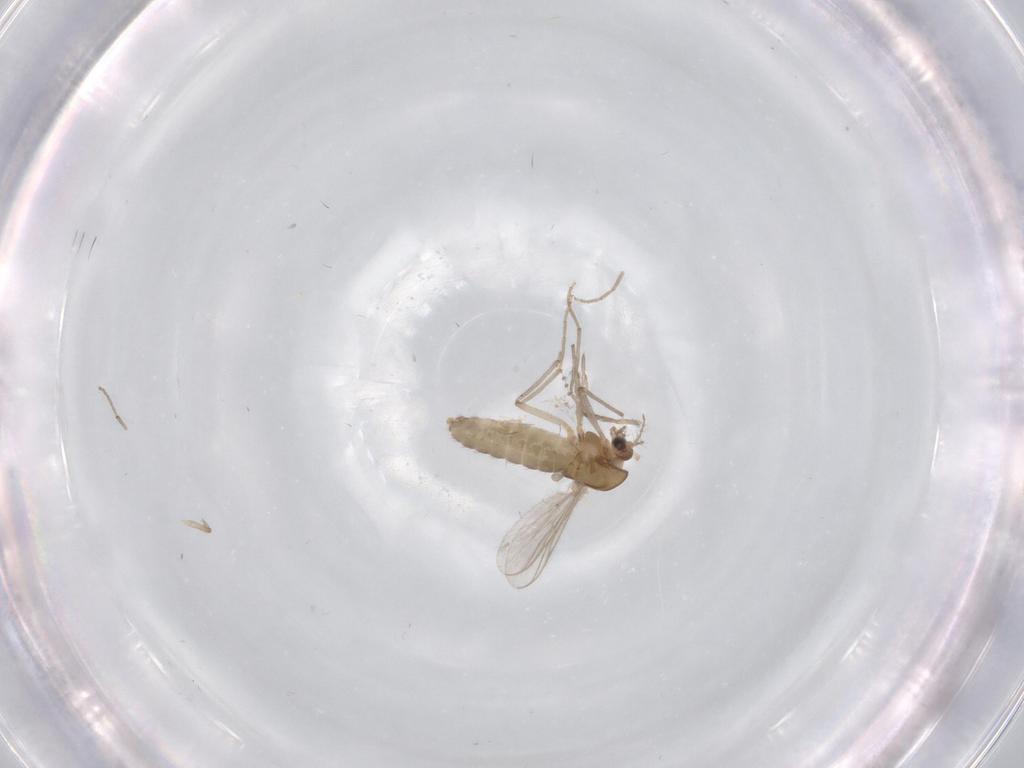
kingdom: Animalia
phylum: Arthropoda
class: Insecta
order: Diptera
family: Chironomidae
